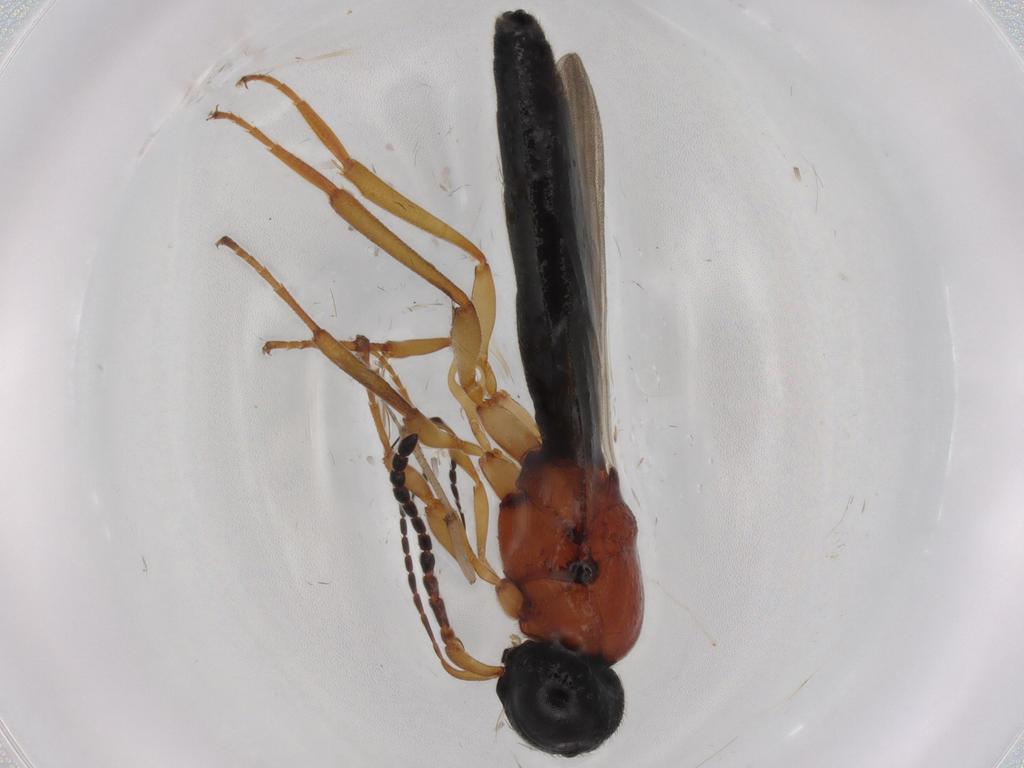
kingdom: Animalia
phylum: Arthropoda
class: Insecta
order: Hymenoptera
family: Scelionidae
